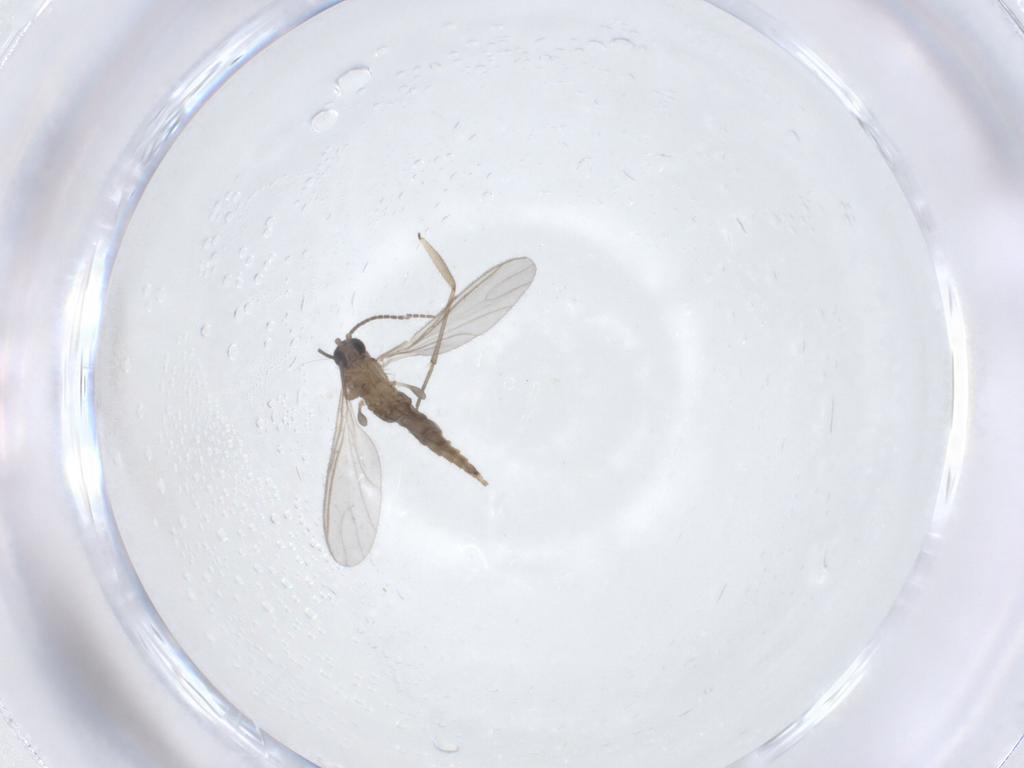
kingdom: Animalia
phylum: Arthropoda
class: Insecta
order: Diptera
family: Sciaridae
